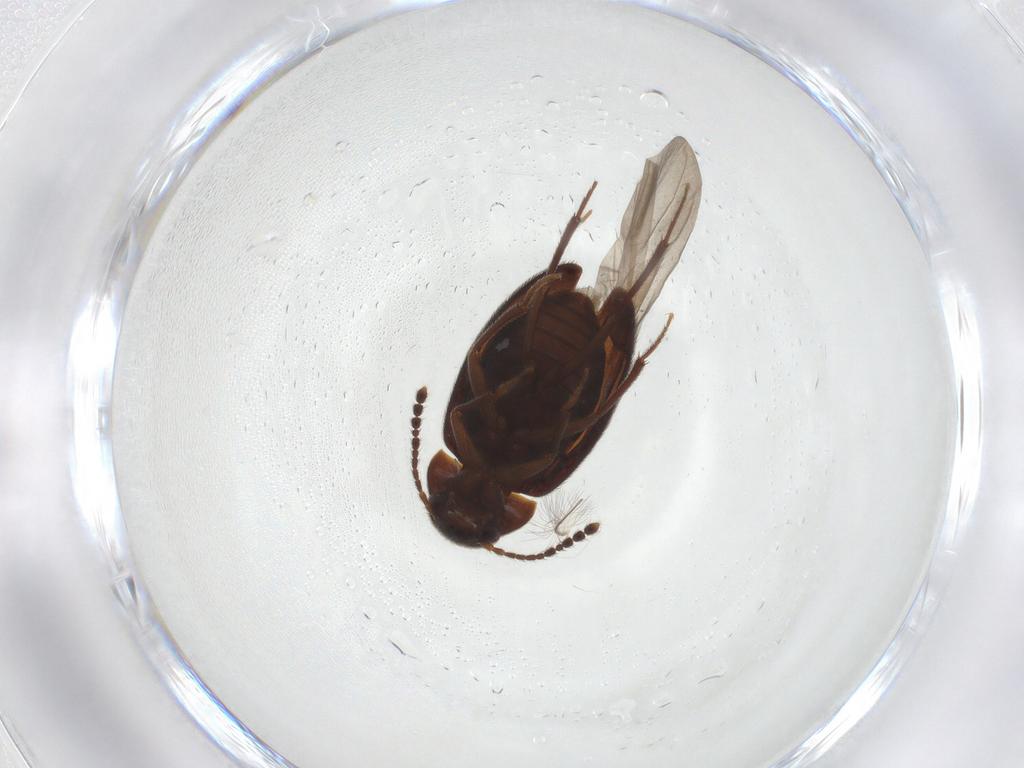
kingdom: Animalia
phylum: Arthropoda
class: Insecta
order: Coleoptera
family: Leiodidae
